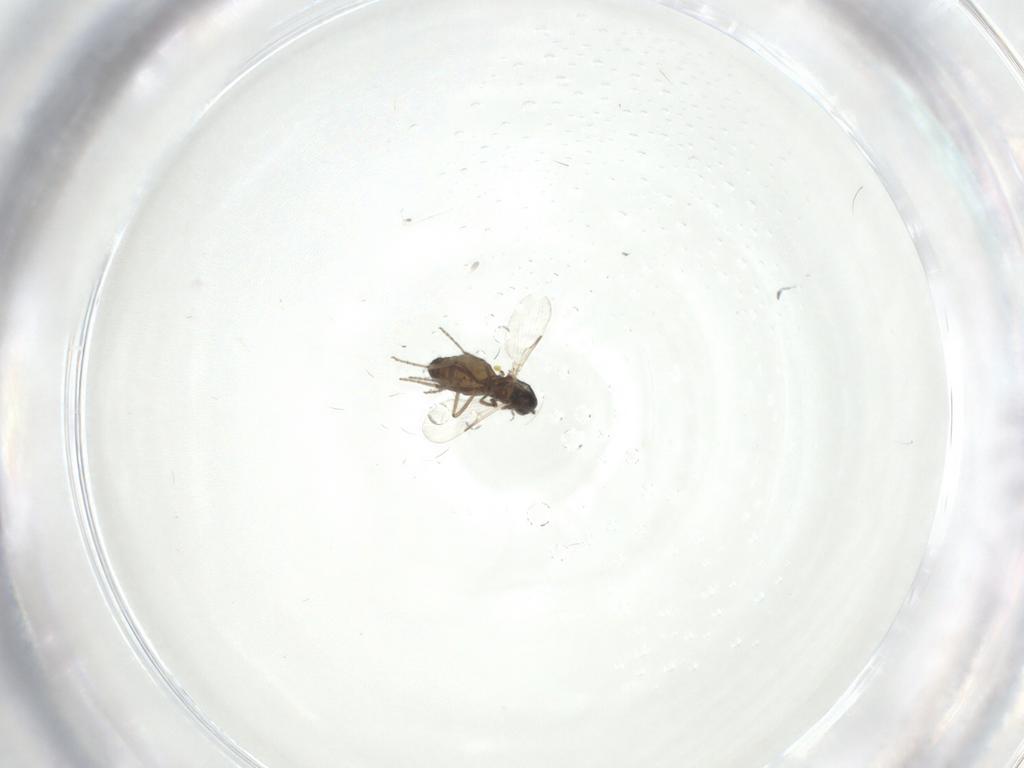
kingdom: Animalia
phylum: Arthropoda
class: Insecta
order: Diptera
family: Ceratopogonidae
